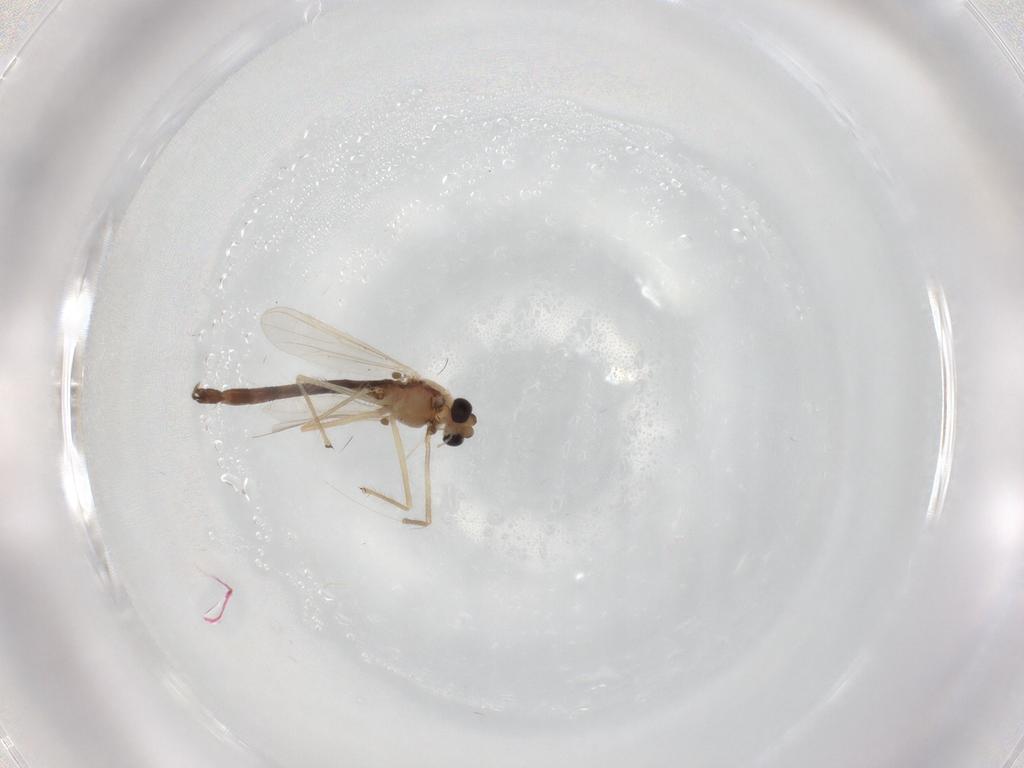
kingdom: Animalia
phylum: Arthropoda
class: Insecta
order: Diptera
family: Chironomidae
